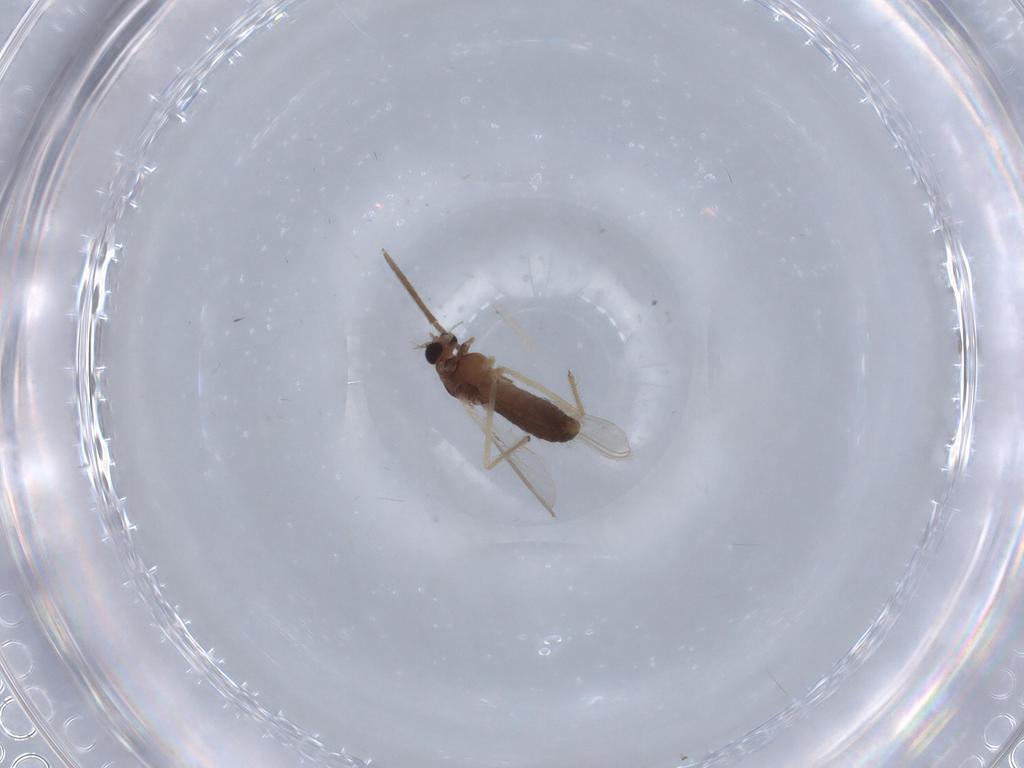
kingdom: Animalia
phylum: Arthropoda
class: Insecta
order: Diptera
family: Chironomidae
